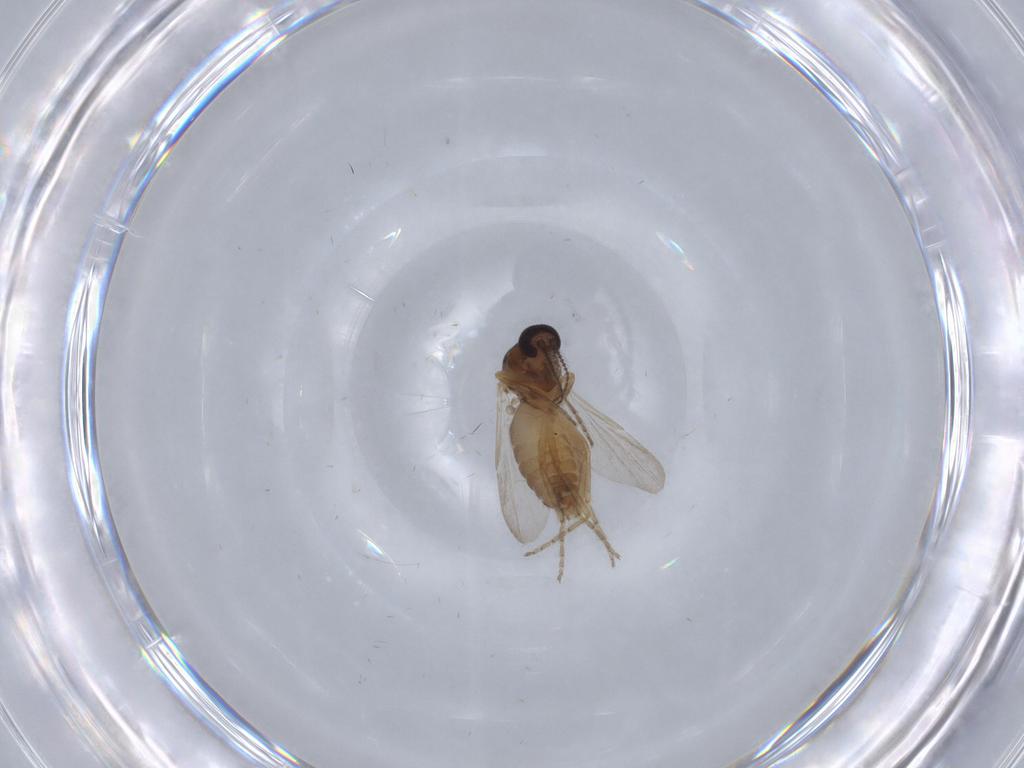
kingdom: Animalia
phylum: Arthropoda
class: Insecta
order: Diptera
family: Ceratopogonidae
